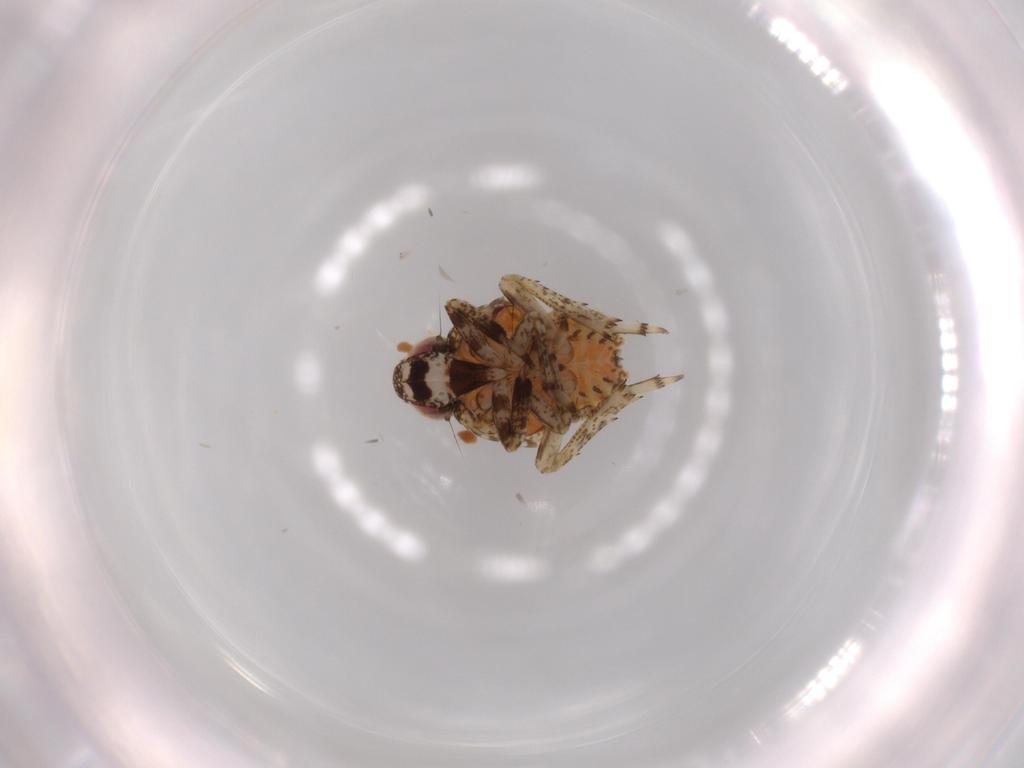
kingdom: Animalia
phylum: Arthropoda
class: Insecta
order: Hemiptera
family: Issidae
